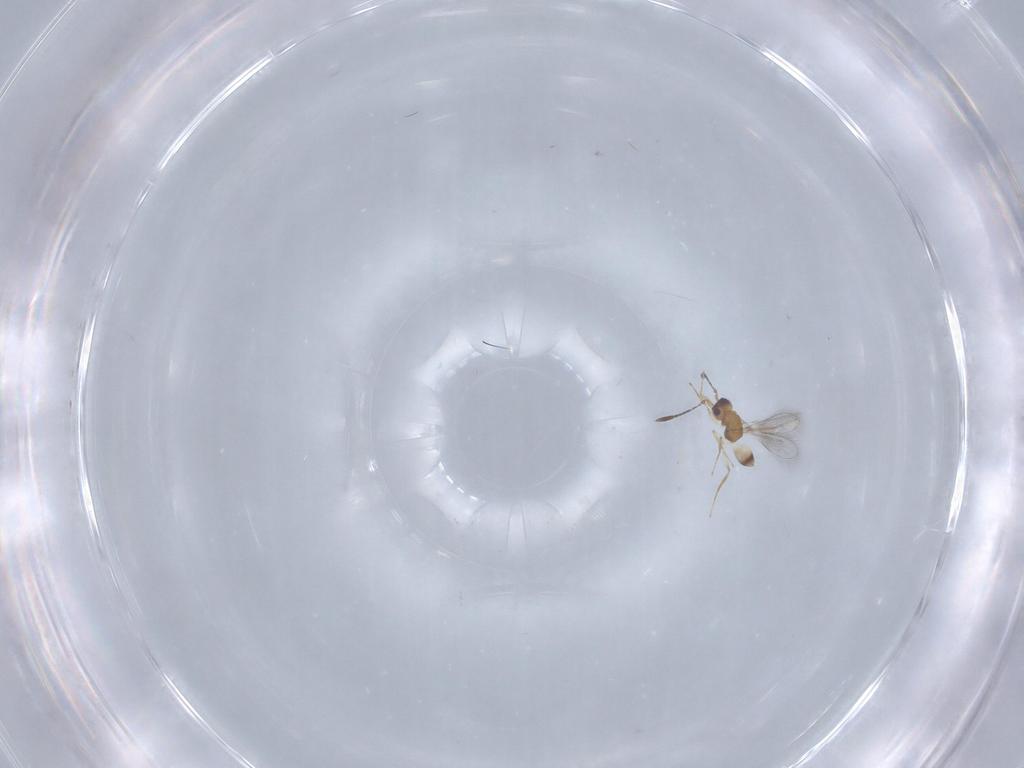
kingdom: Animalia
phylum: Arthropoda
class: Insecta
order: Hymenoptera
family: Mymaridae
